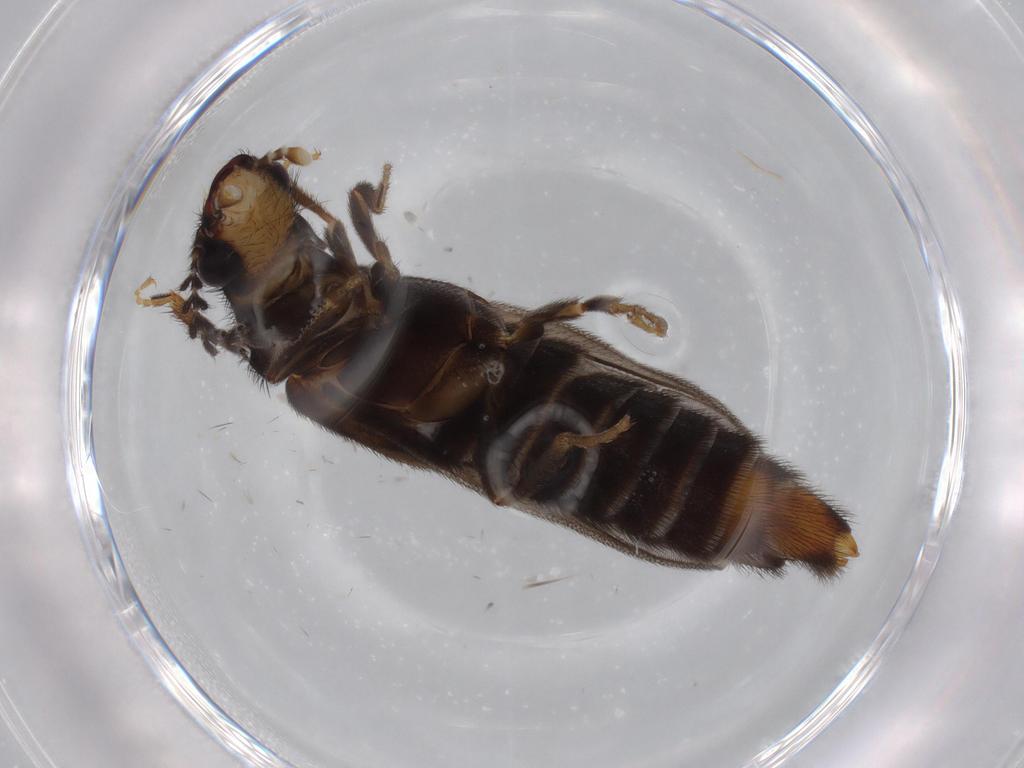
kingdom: Animalia
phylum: Arthropoda
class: Insecta
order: Coleoptera
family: Phengodidae
